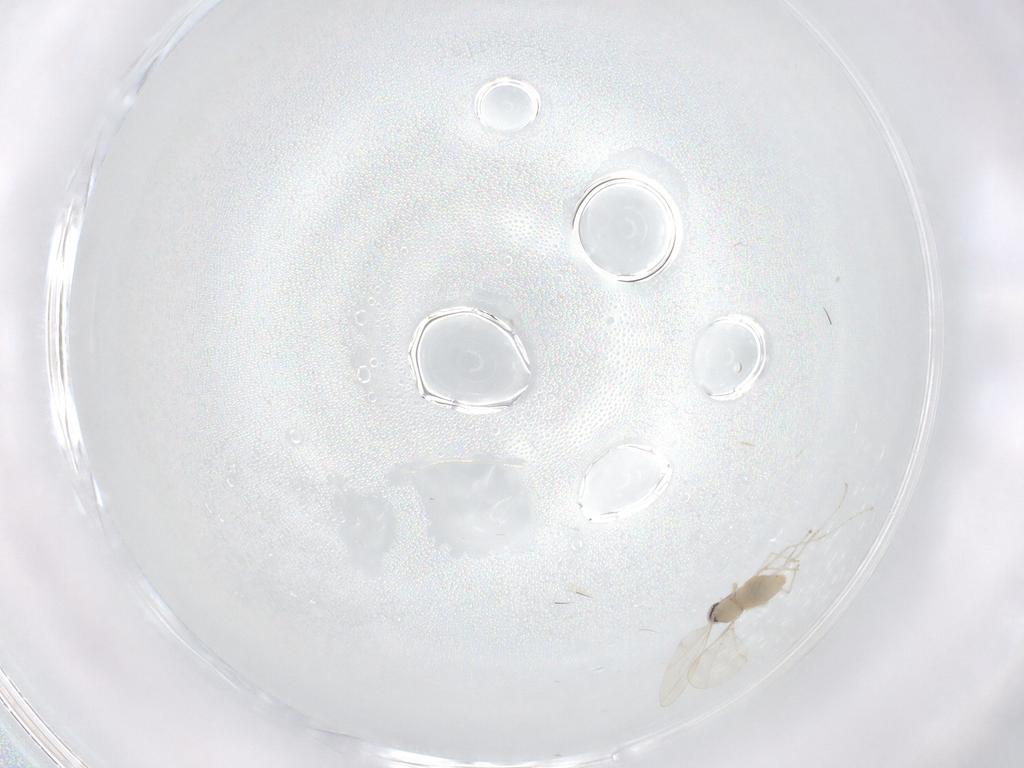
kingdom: Animalia
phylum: Arthropoda
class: Insecta
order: Diptera
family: Cecidomyiidae
